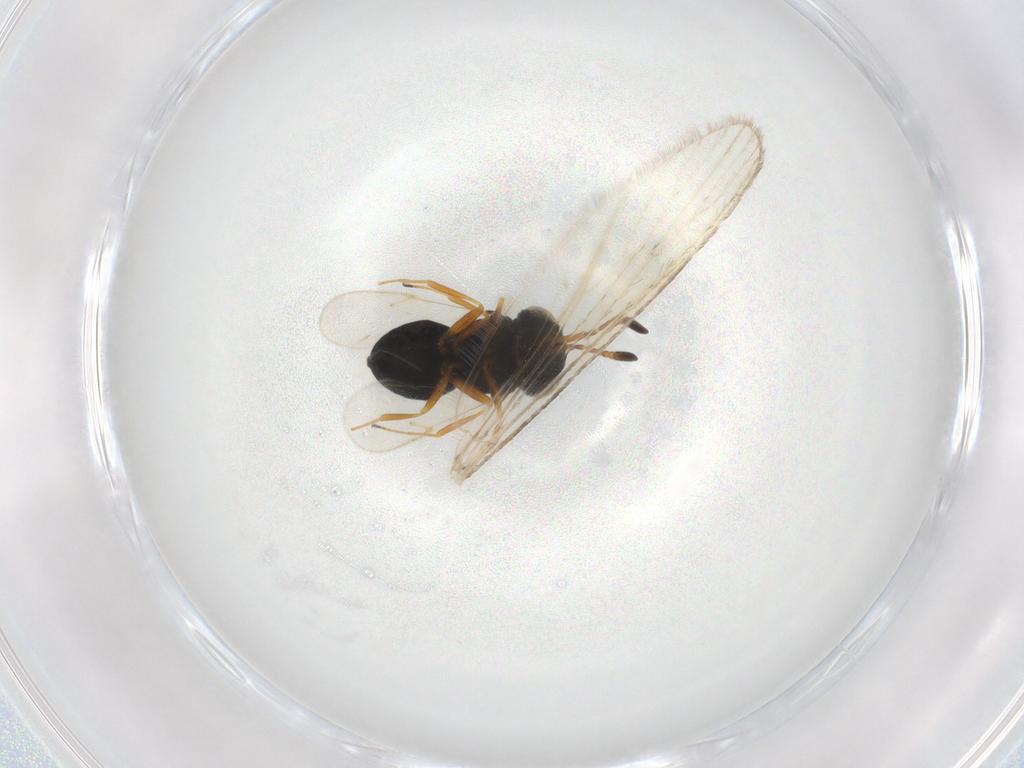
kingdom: Animalia
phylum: Arthropoda
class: Insecta
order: Hymenoptera
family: Scelionidae
